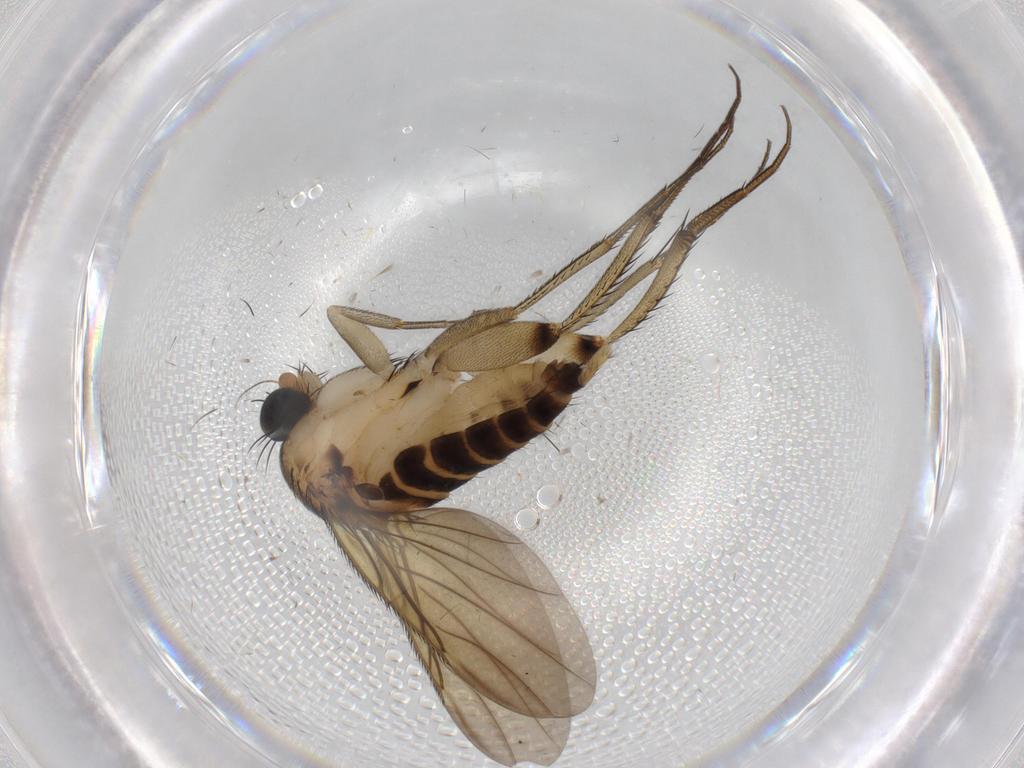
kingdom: Animalia
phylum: Arthropoda
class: Insecta
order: Diptera
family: Phoridae
